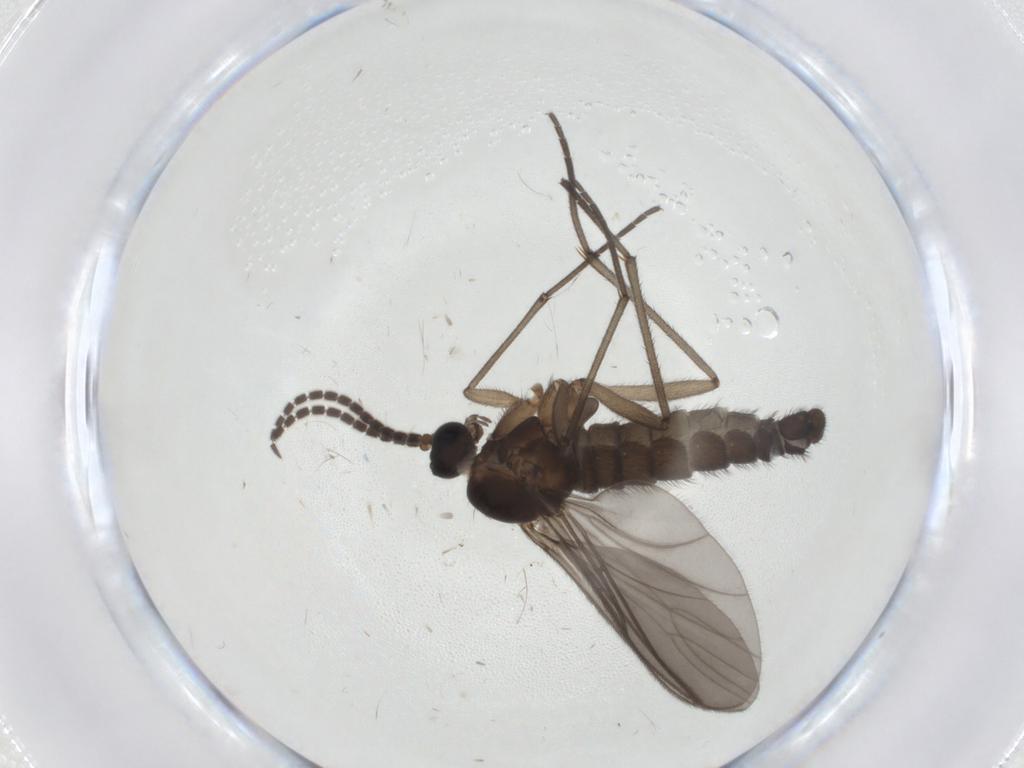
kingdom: Animalia
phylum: Arthropoda
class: Insecta
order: Diptera
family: Sciaridae
